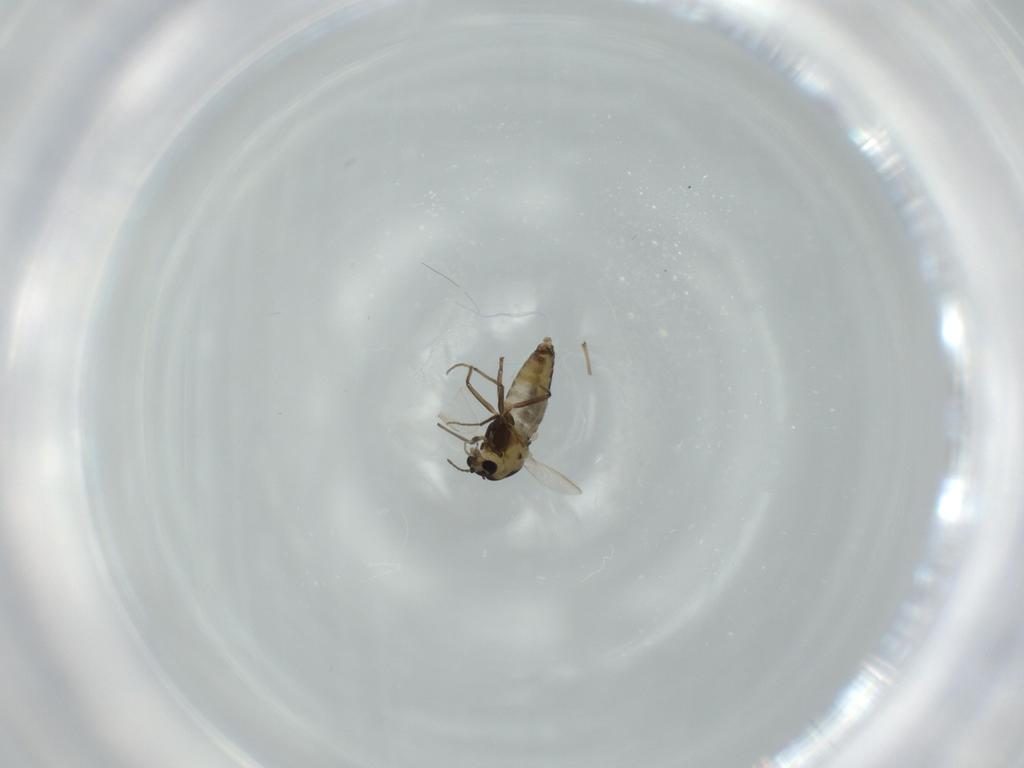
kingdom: Animalia
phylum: Arthropoda
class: Insecta
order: Diptera
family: Chironomidae
